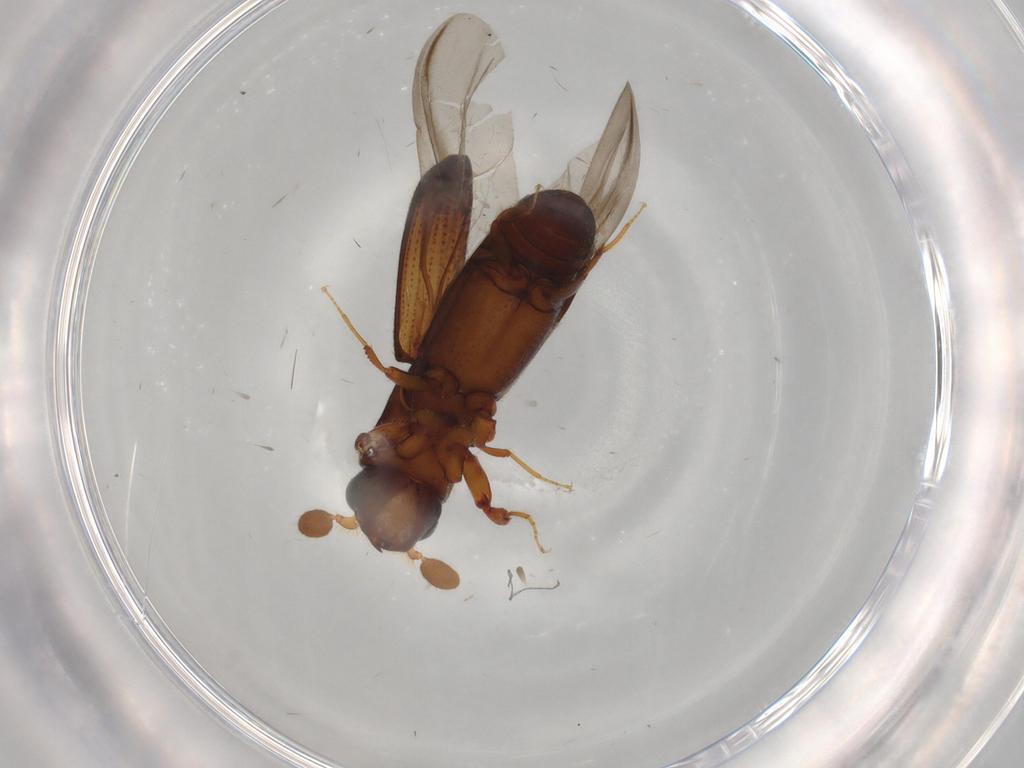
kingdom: Animalia
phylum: Arthropoda
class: Insecta
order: Coleoptera
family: Curculionidae
